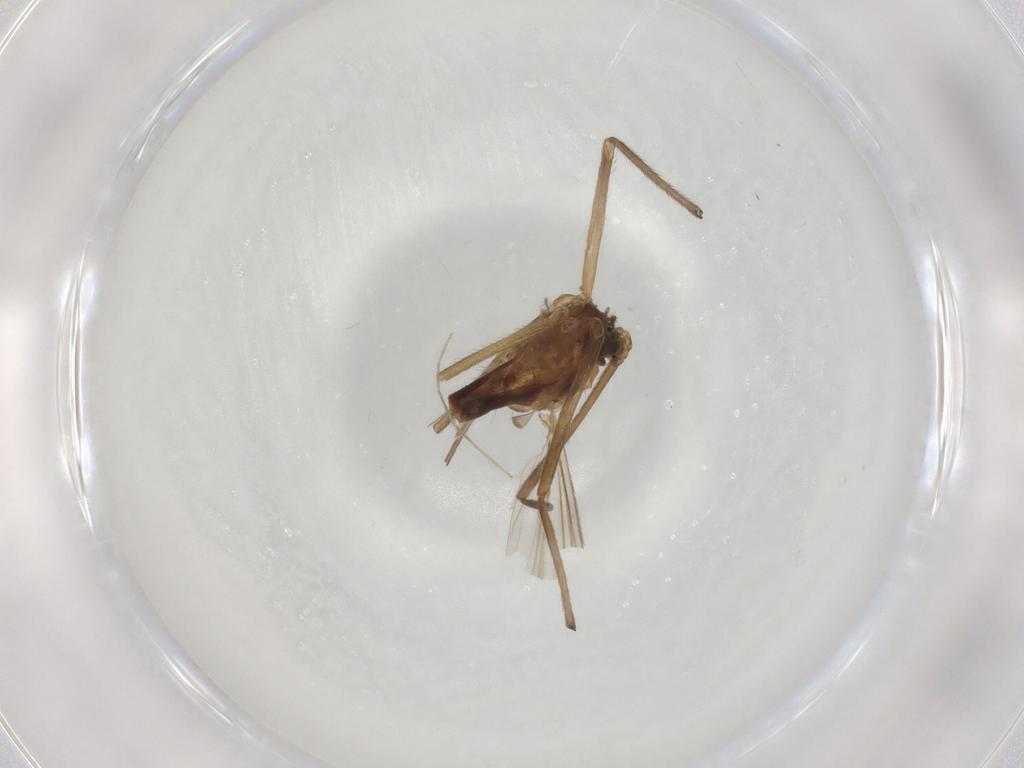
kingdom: Animalia
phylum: Arthropoda
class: Insecta
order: Diptera
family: Chironomidae
